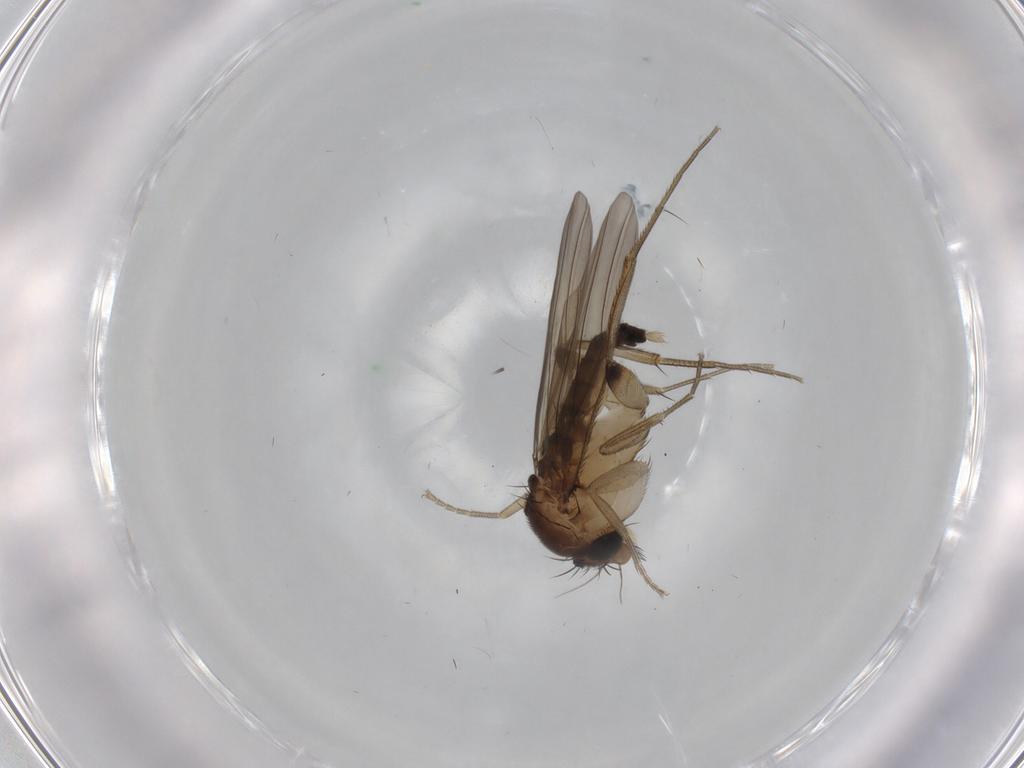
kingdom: Animalia
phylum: Arthropoda
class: Insecta
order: Diptera
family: Phoridae
